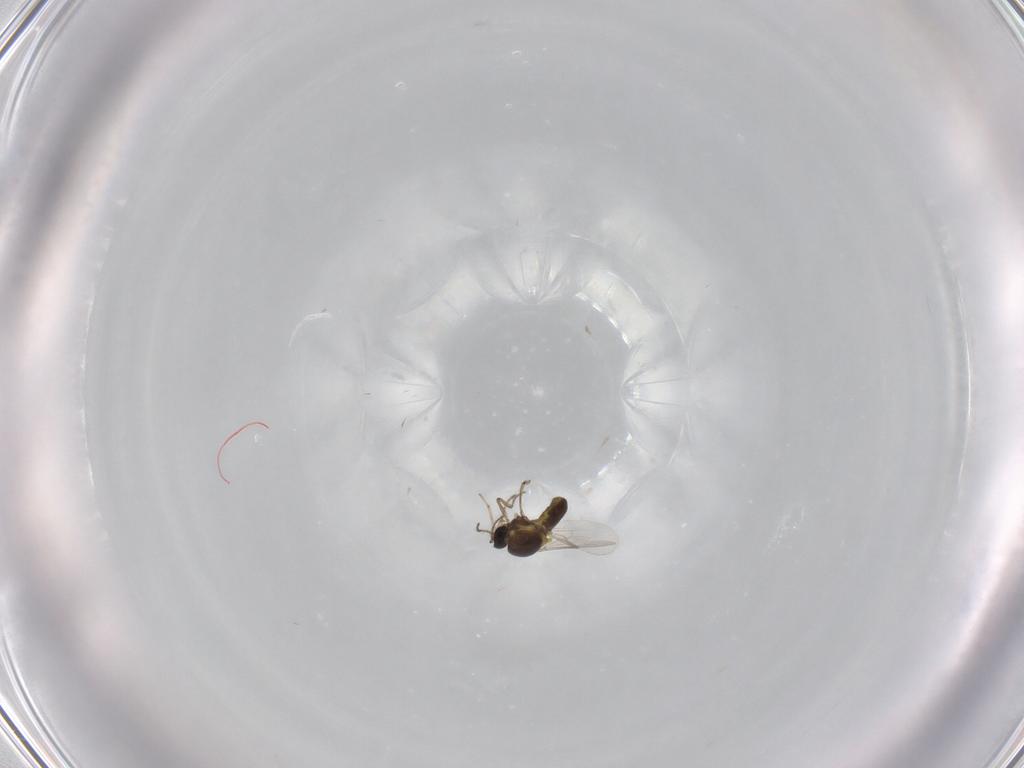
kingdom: Animalia
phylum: Arthropoda
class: Insecta
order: Diptera
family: Ceratopogonidae
